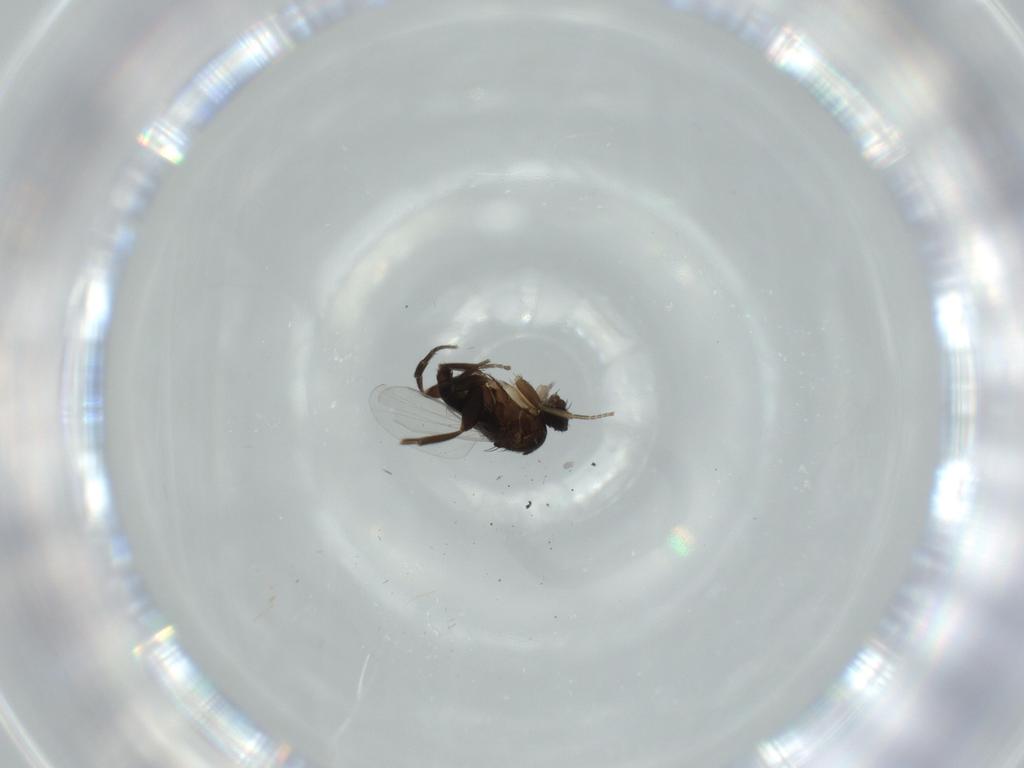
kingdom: Animalia
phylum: Arthropoda
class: Insecta
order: Diptera
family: Phoridae
